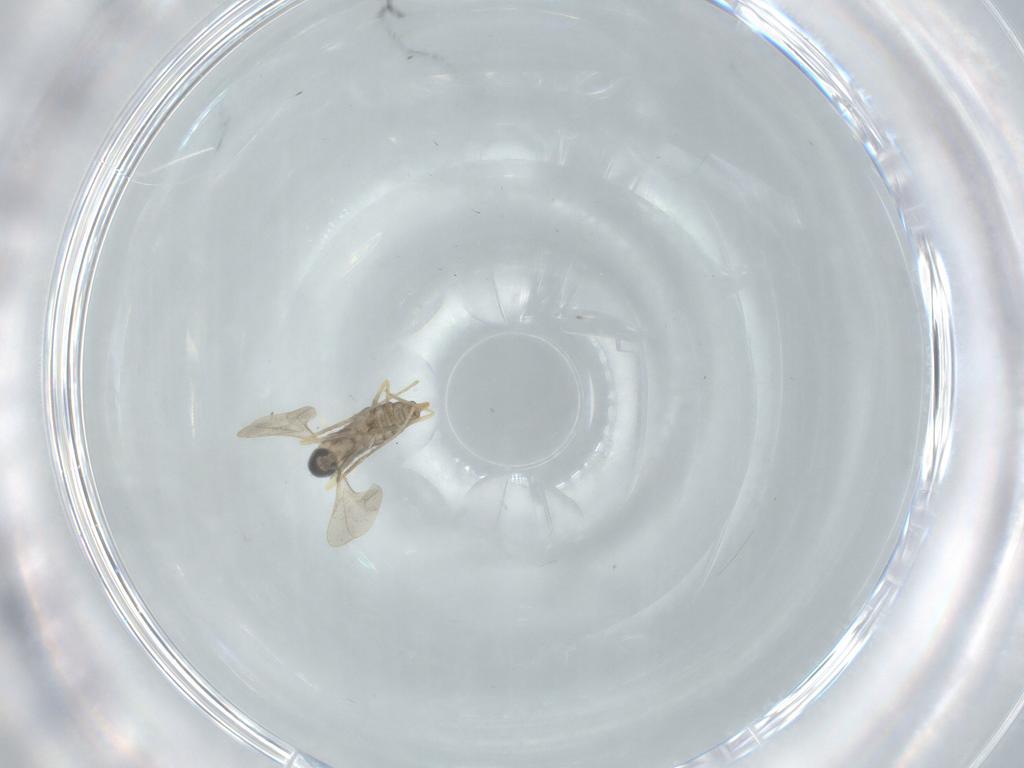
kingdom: Animalia
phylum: Arthropoda
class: Insecta
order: Diptera
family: Cecidomyiidae
